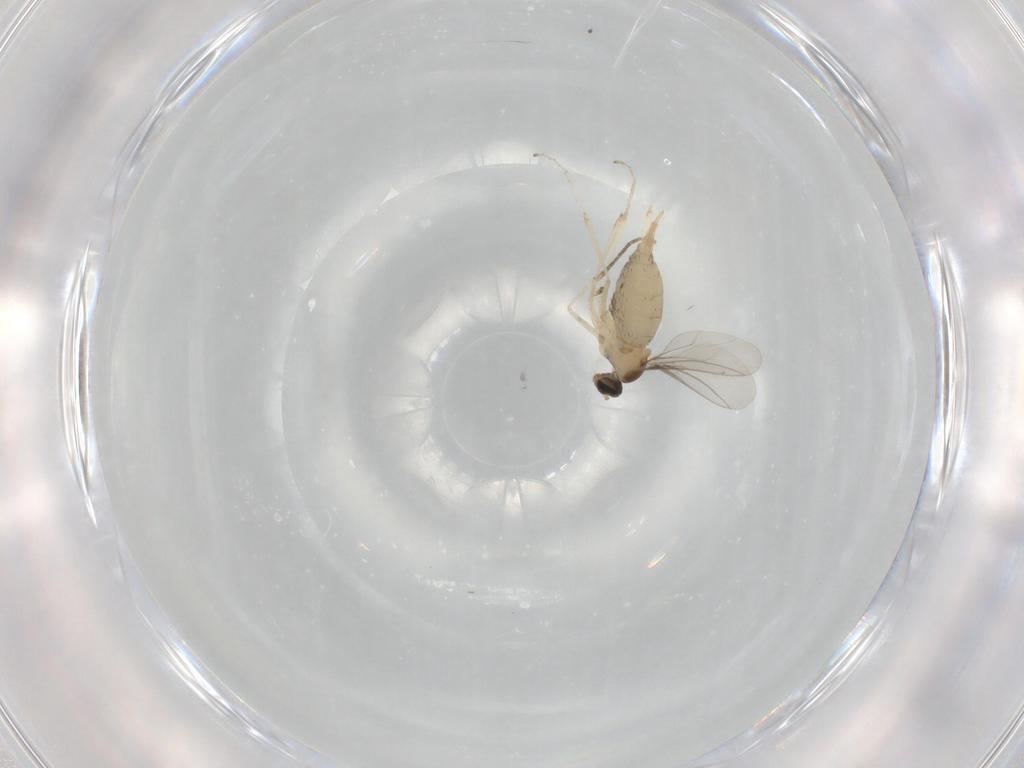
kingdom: Animalia
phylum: Arthropoda
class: Insecta
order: Diptera
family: Cecidomyiidae
